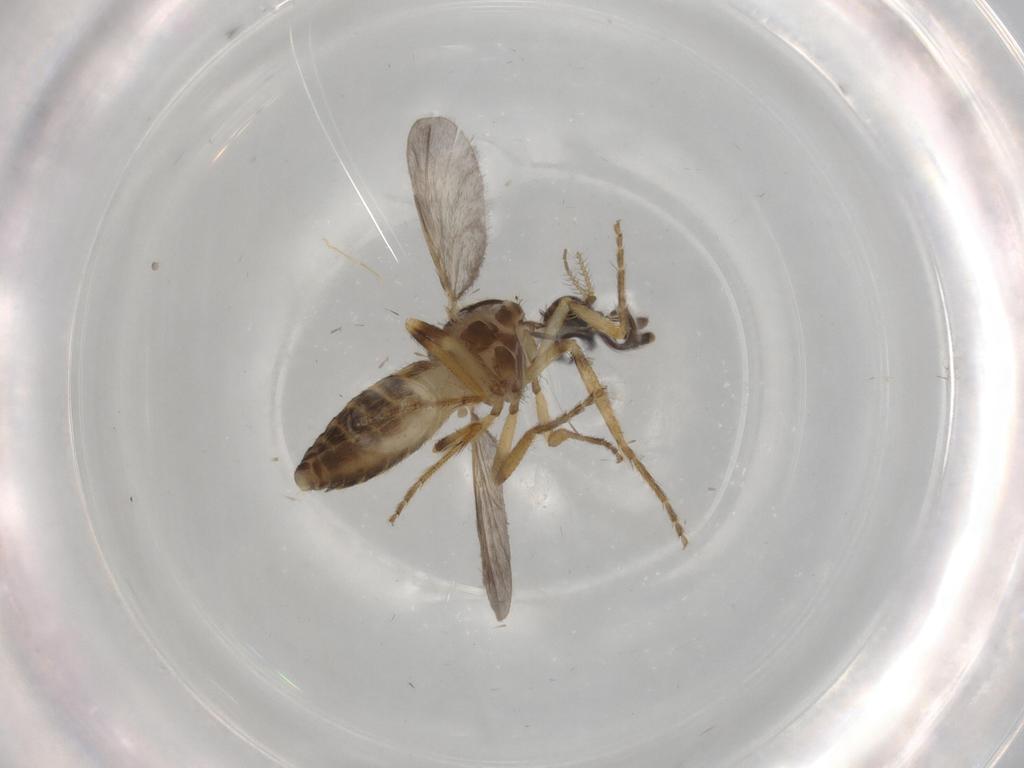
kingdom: Animalia
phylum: Arthropoda
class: Insecta
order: Diptera
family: Ceratopogonidae
